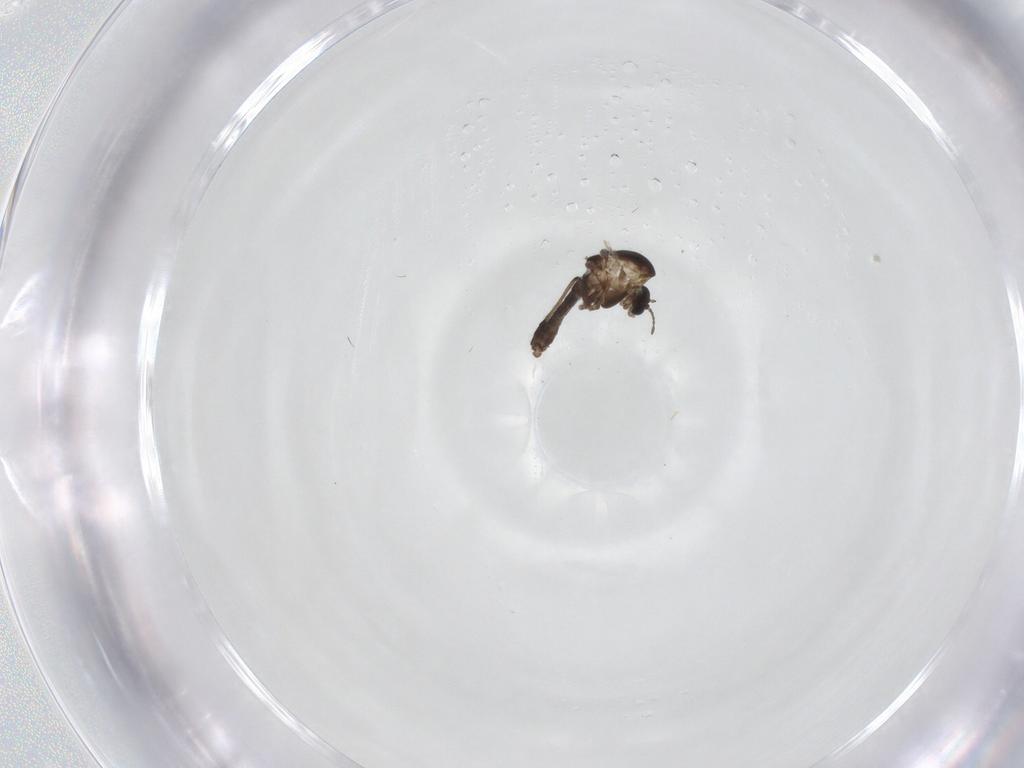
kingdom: Animalia
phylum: Arthropoda
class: Insecta
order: Diptera
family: Chironomidae
